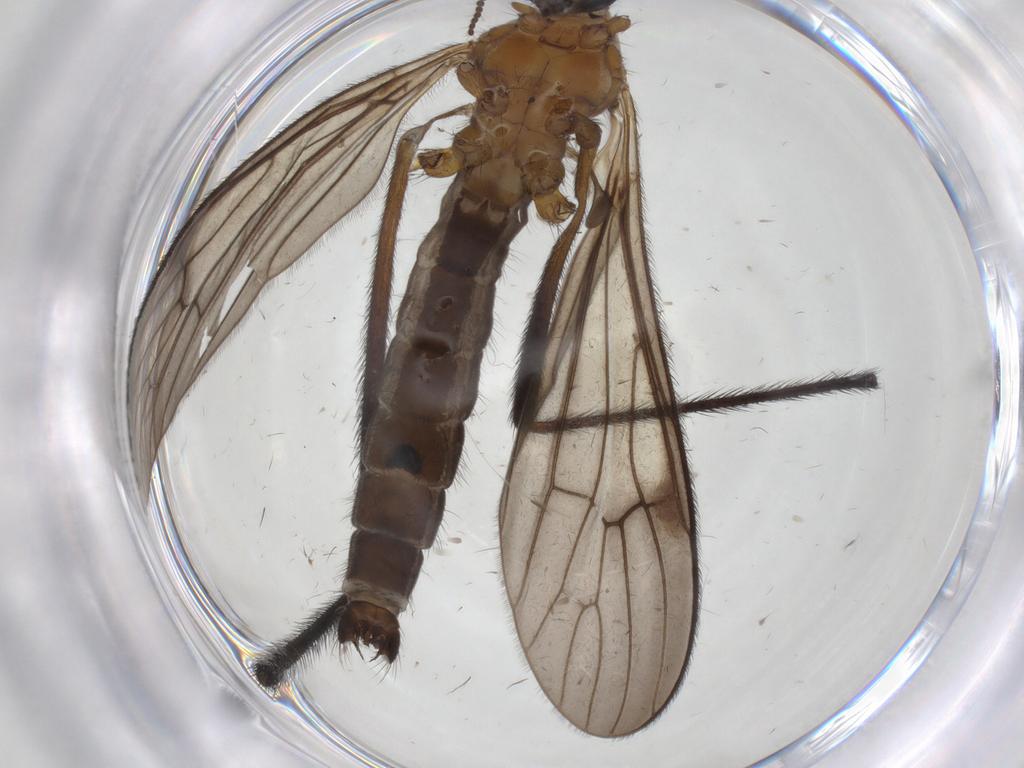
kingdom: Animalia
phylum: Arthropoda
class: Insecta
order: Diptera
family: Limoniidae
